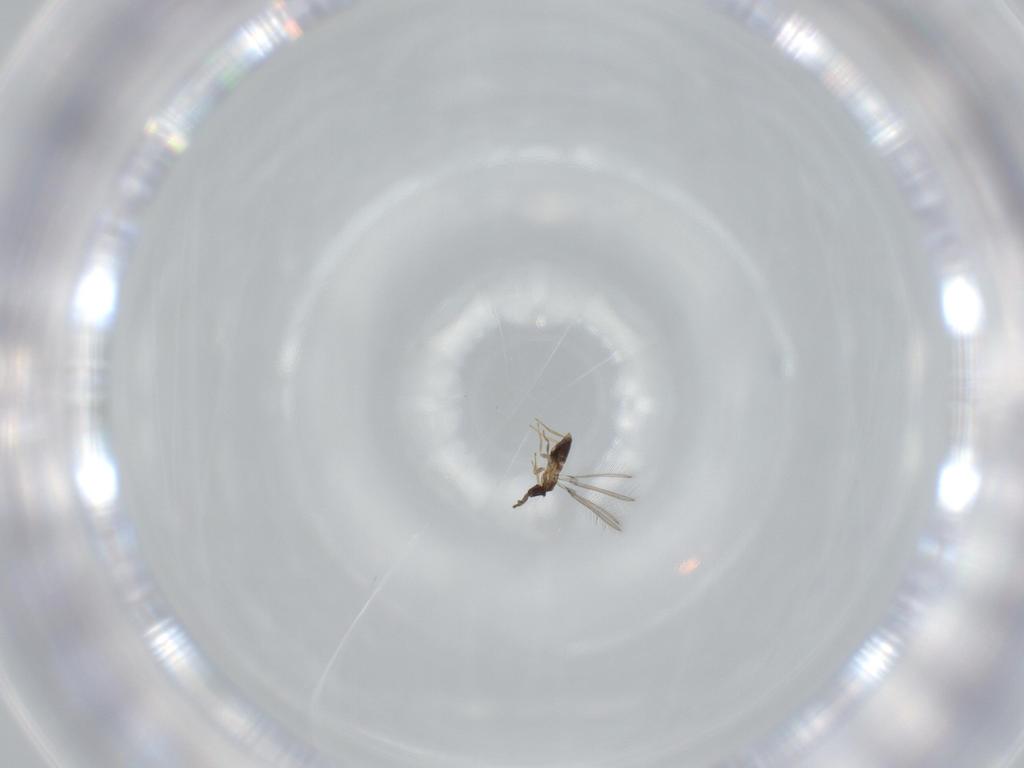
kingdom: Animalia
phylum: Arthropoda
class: Insecta
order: Hymenoptera
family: Mymaridae
